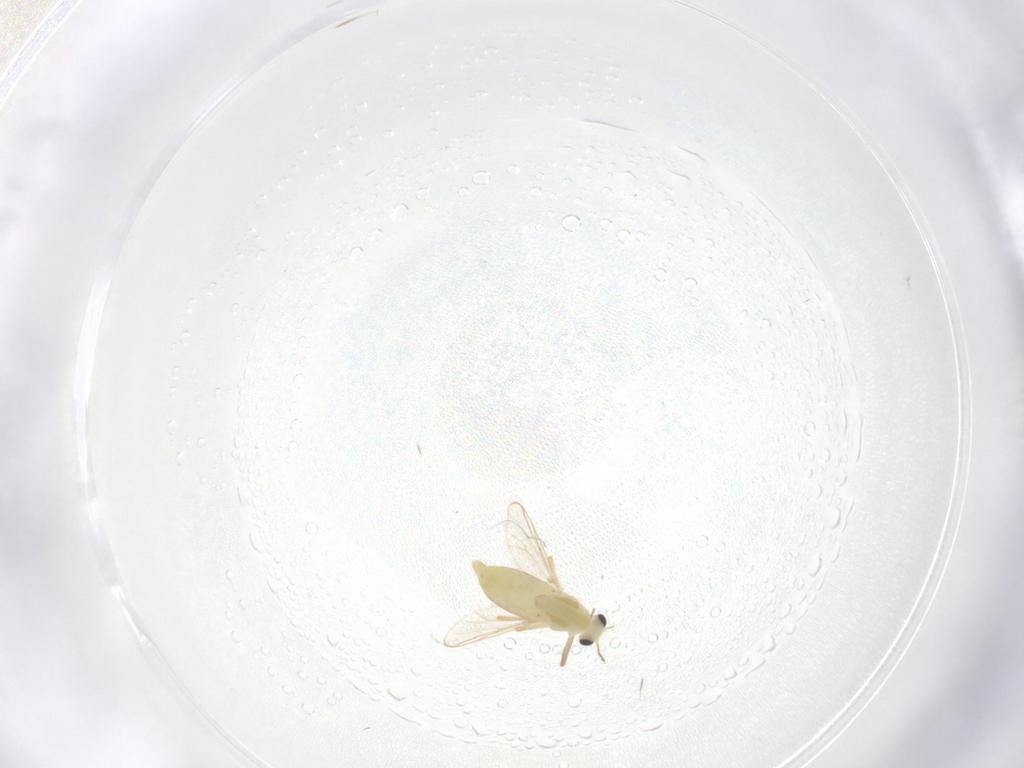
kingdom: Animalia
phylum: Arthropoda
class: Insecta
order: Diptera
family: Chironomidae
